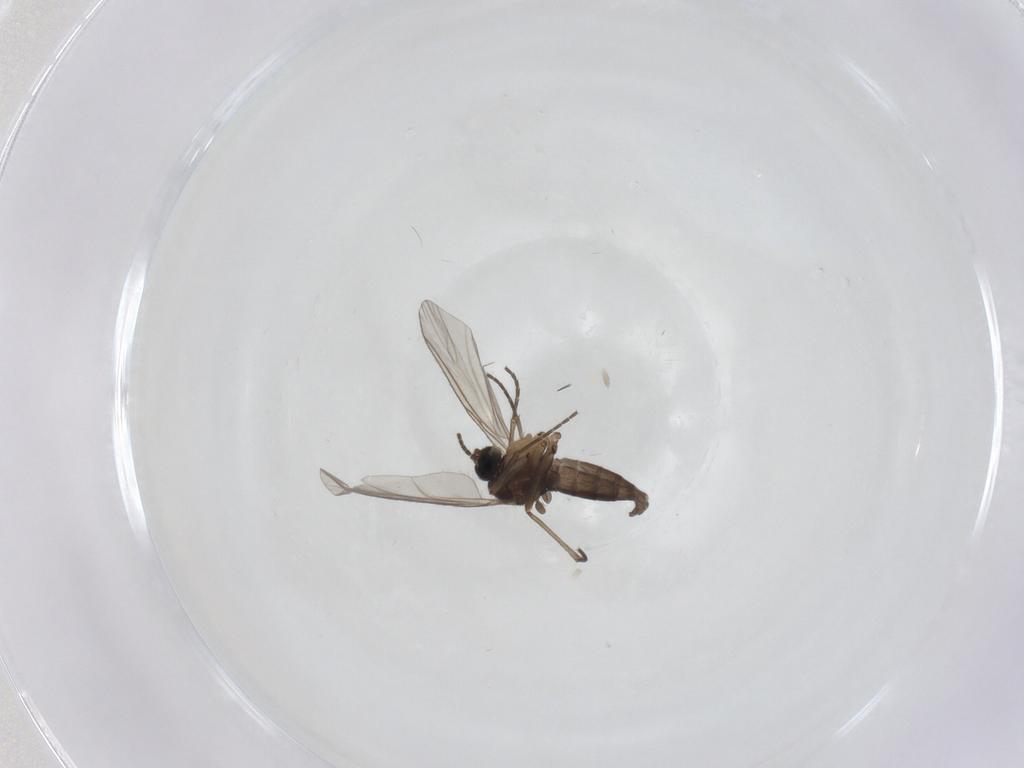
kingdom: Animalia
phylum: Arthropoda
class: Insecta
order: Diptera
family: Sciaridae
